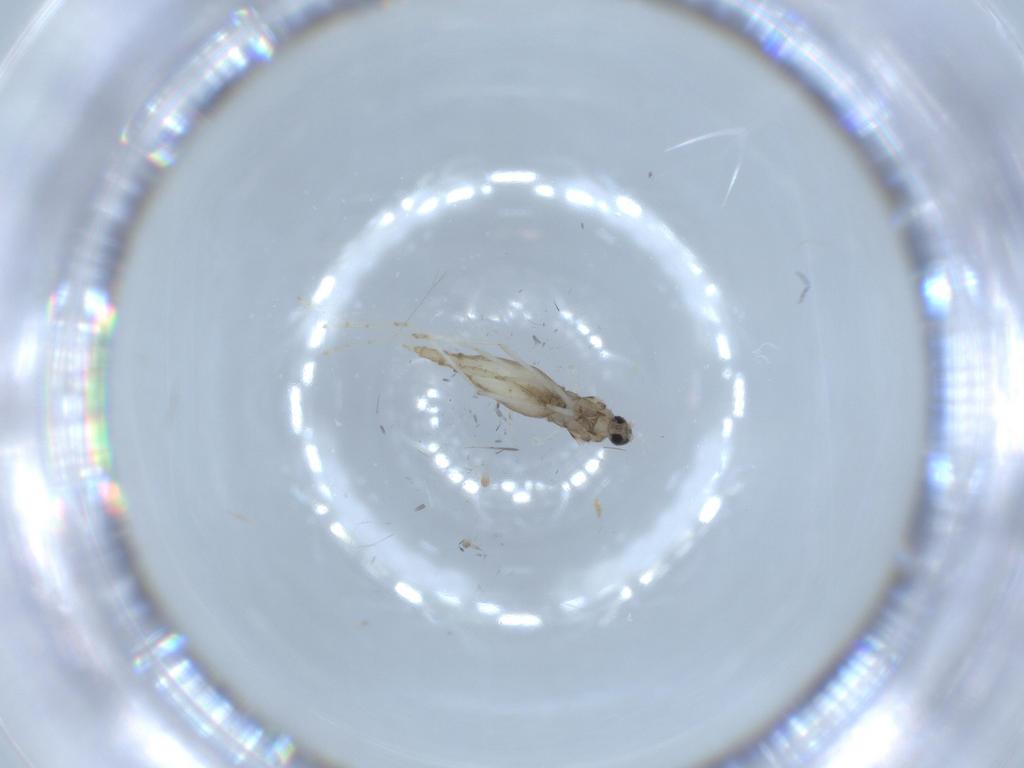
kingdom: Animalia
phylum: Arthropoda
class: Insecta
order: Diptera
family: Cecidomyiidae
